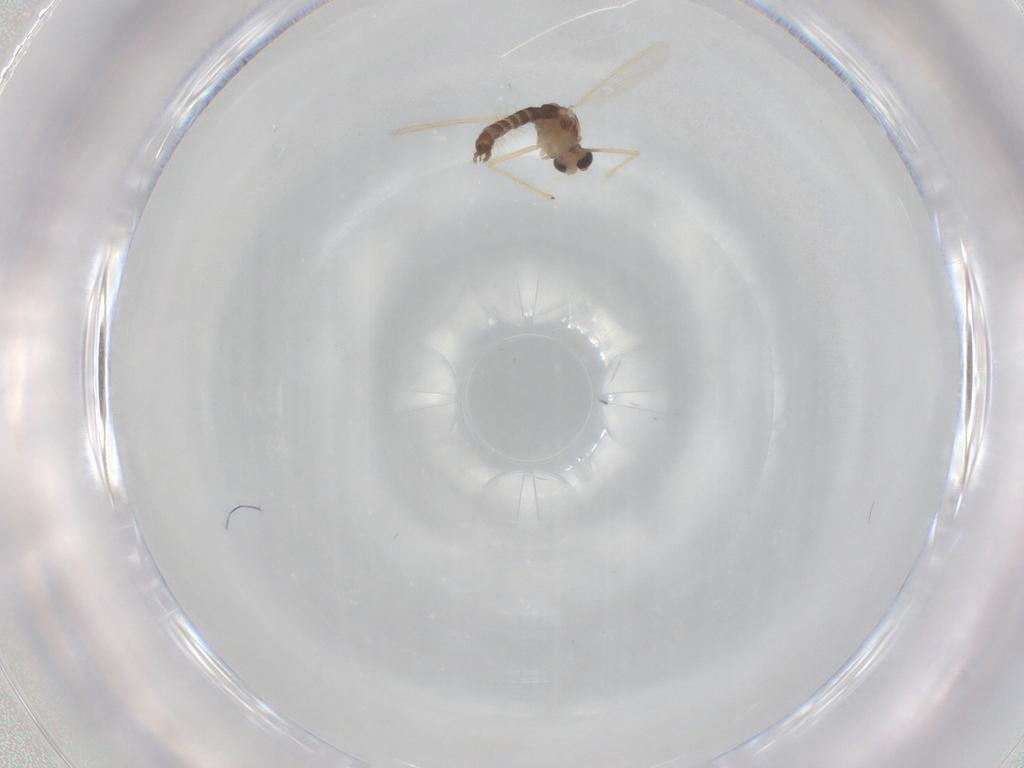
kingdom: Animalia
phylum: Arthropoda
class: Insecta
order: Diptera
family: Chironomidae
